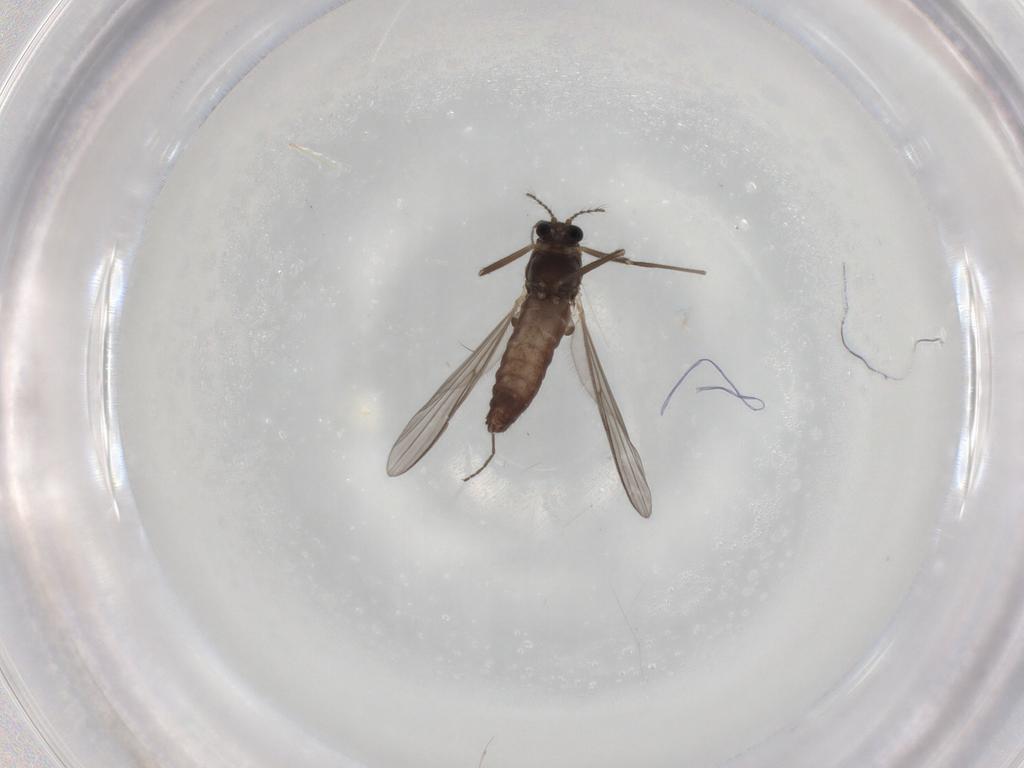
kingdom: Animalia
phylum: Arthropoda
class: Insecta
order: Diptera
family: Chironomidae
